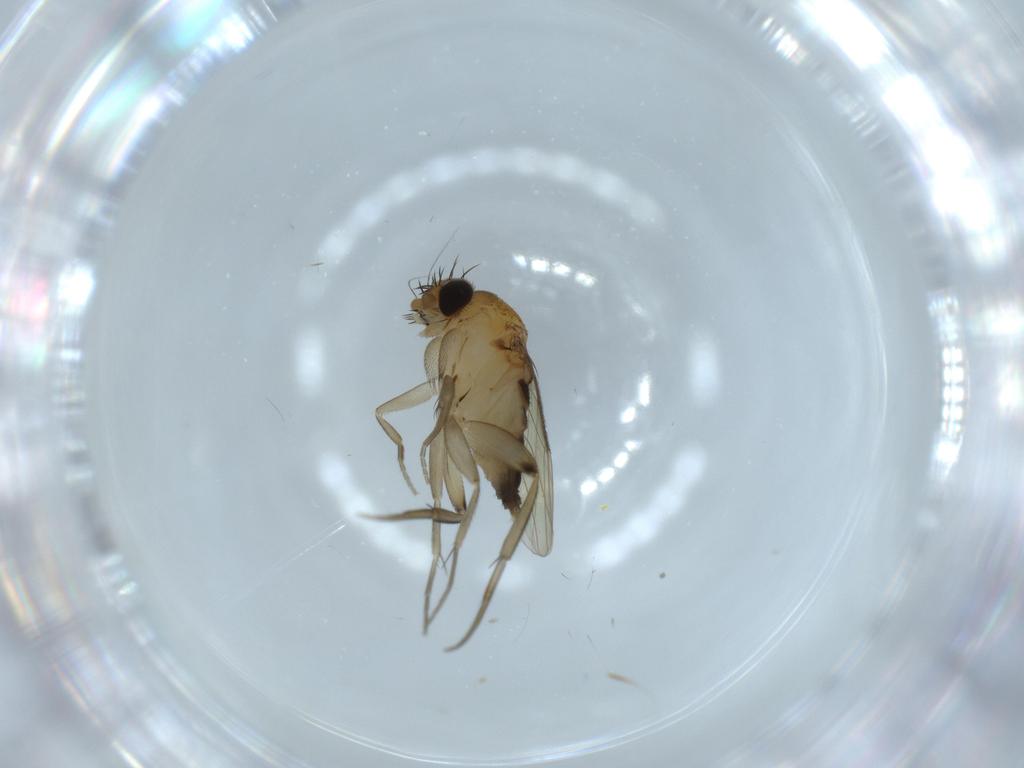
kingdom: Animalia
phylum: Arthropoda
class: Insecta
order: Diptera
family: Phoridae
